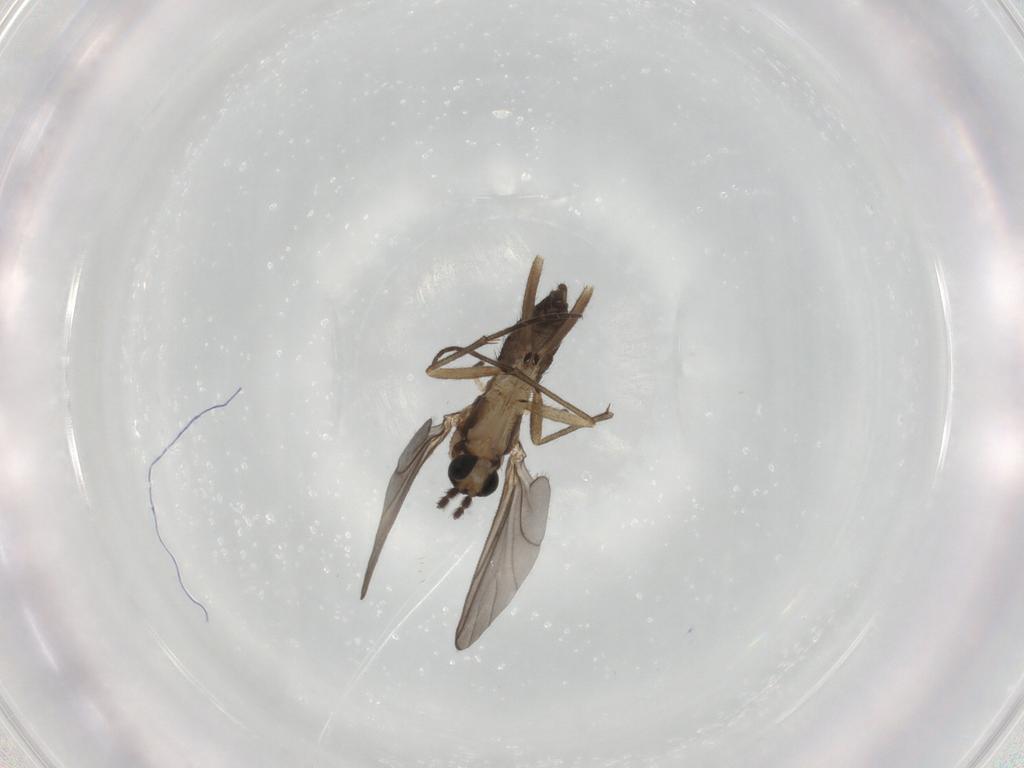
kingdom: Animalia
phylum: Arthropoda
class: Insecta
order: Diptera
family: Sciaridae
